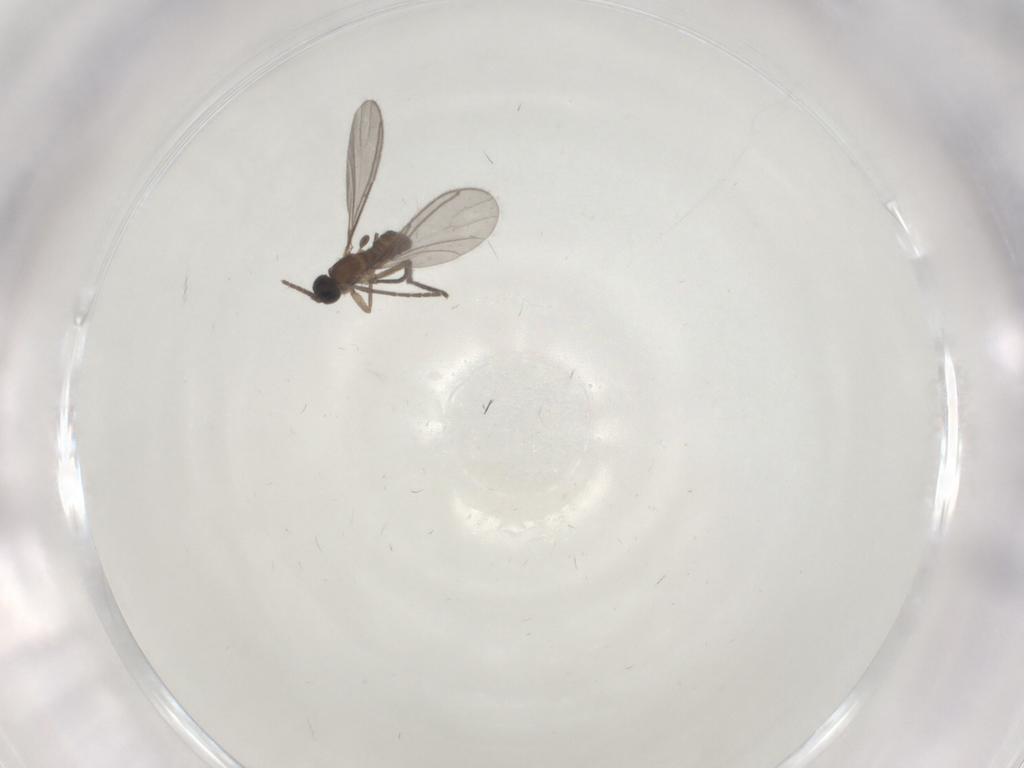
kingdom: Animalia
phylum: Arthropoda
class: Insecta
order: Diptera
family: Sciaridae
